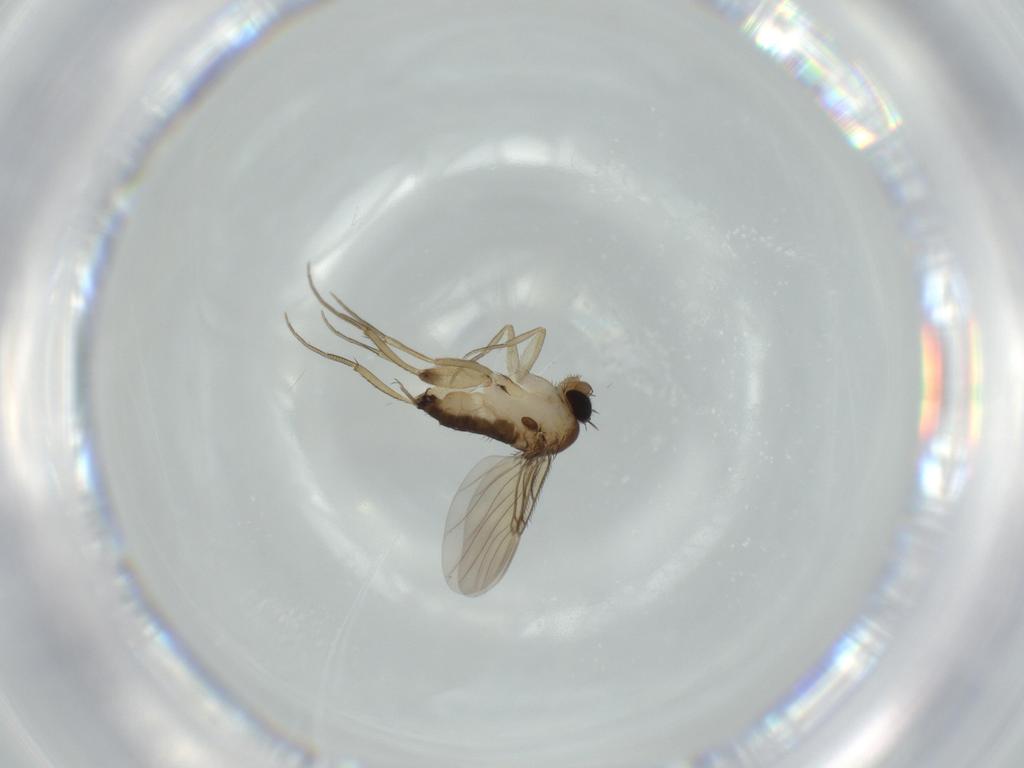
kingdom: Animalia
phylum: Arthropoda
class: Insecta
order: Diptera
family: Phoridae
